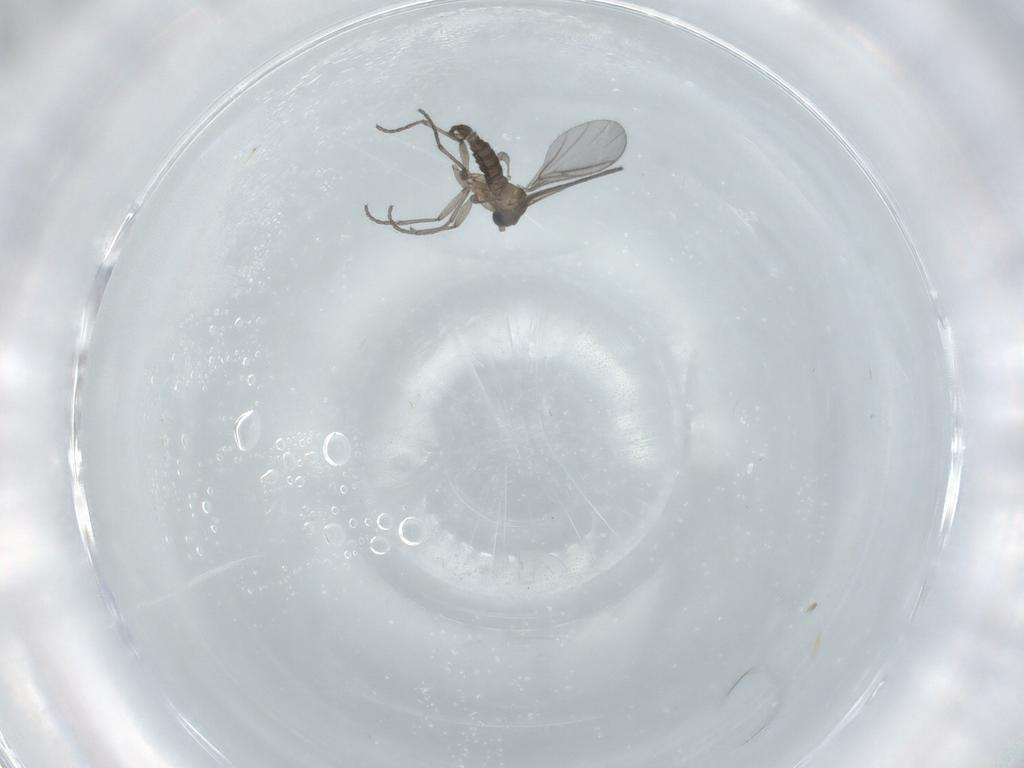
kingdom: Animalia
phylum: Arthropoda
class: Insecta
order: Diptera
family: Sciaridae
